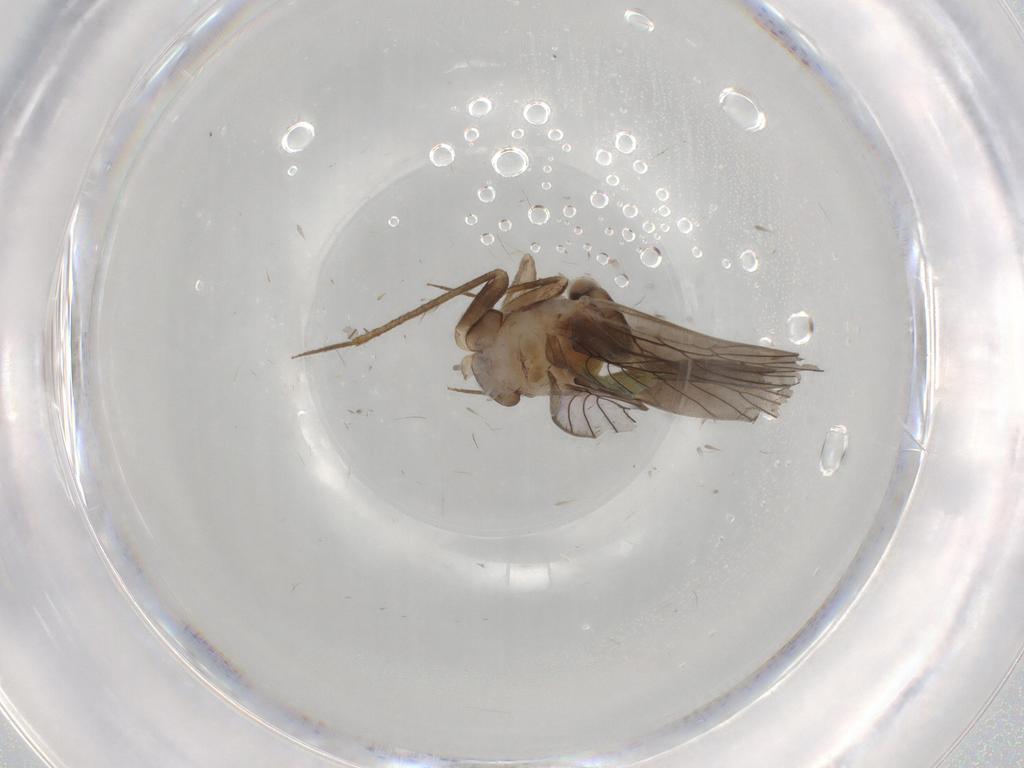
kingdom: Animalia
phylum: Arthropoda
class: Insecta
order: Psocodea
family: Lepidopsocidae
